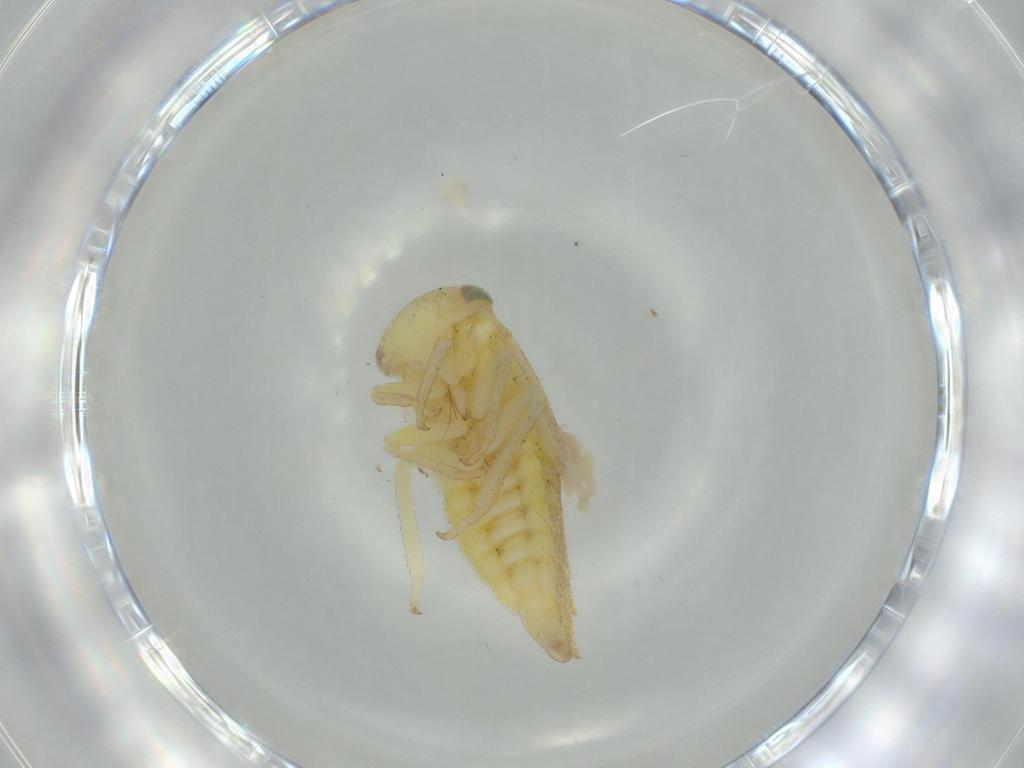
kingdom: Animalia
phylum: Arthropoda
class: Insecta
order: Hemiptera
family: Cicadellidae
